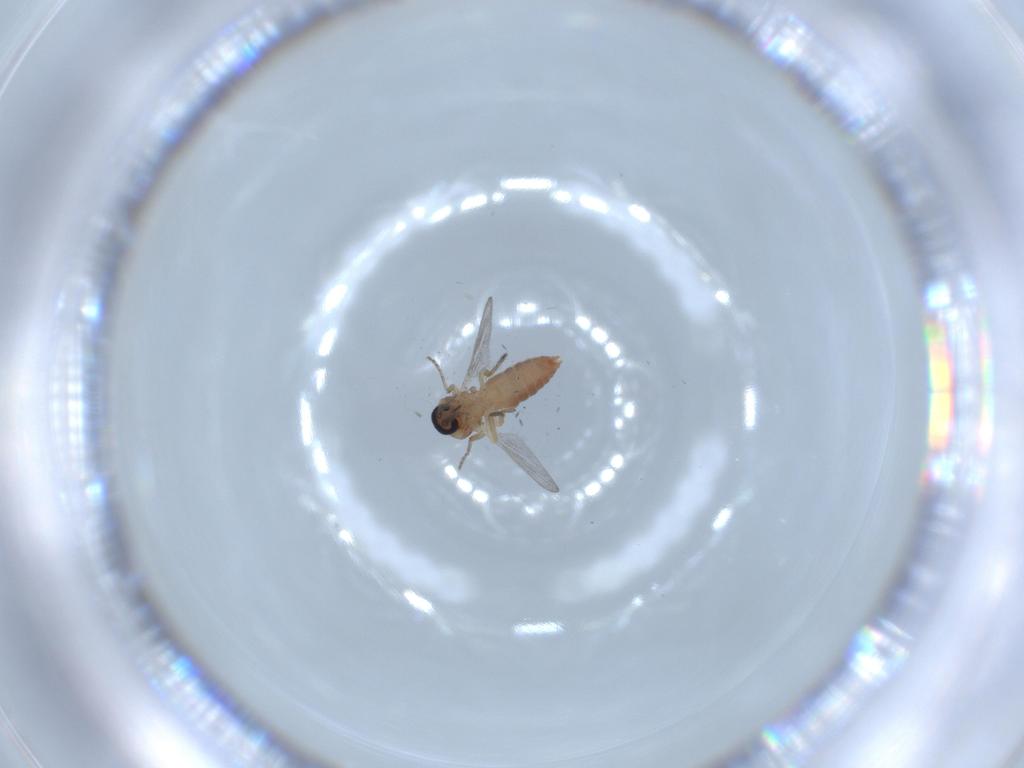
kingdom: Animalia
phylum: Arthropoda
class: Insecta
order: Diptera
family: Ceratopogonidae
